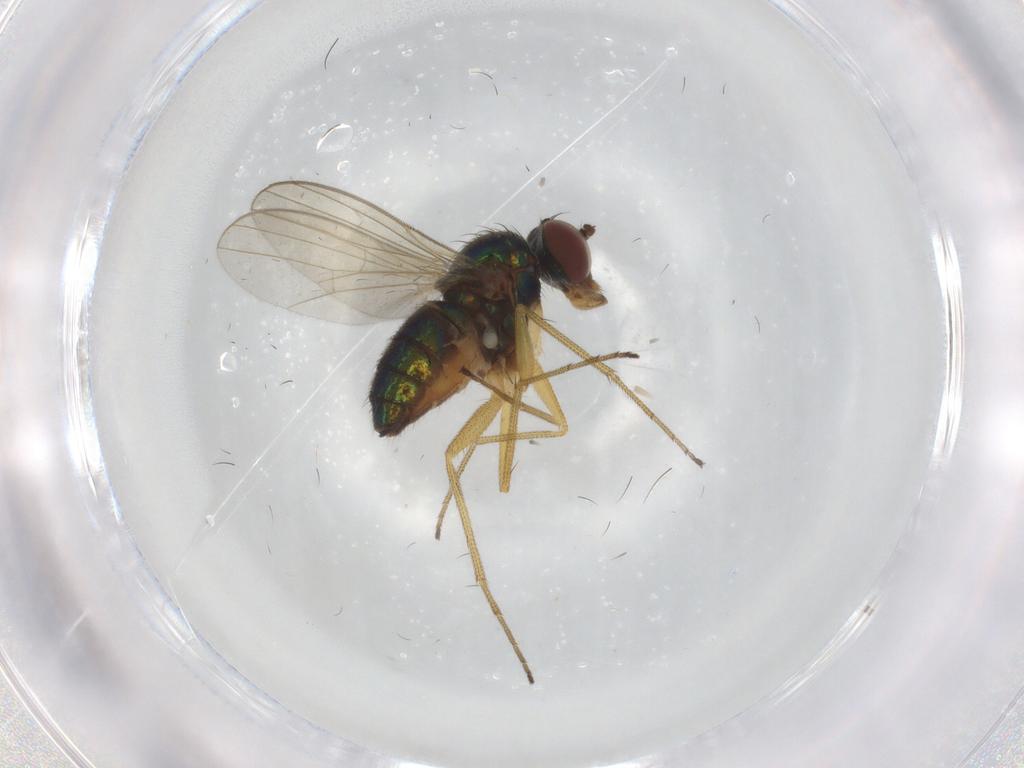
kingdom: Animalia
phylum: Arthropoda
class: Insecta
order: Diptera
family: Dolichopodidae
